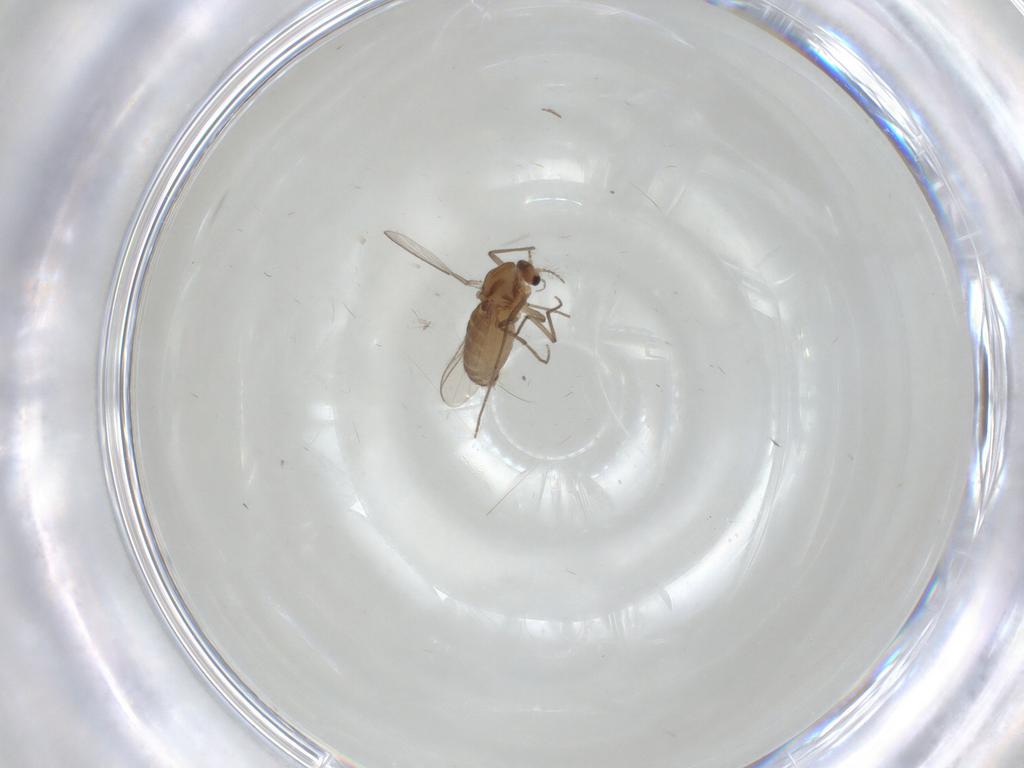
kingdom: Animalia
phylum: Arthropoda
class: Insecta
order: Diptera
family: Chironomidae
